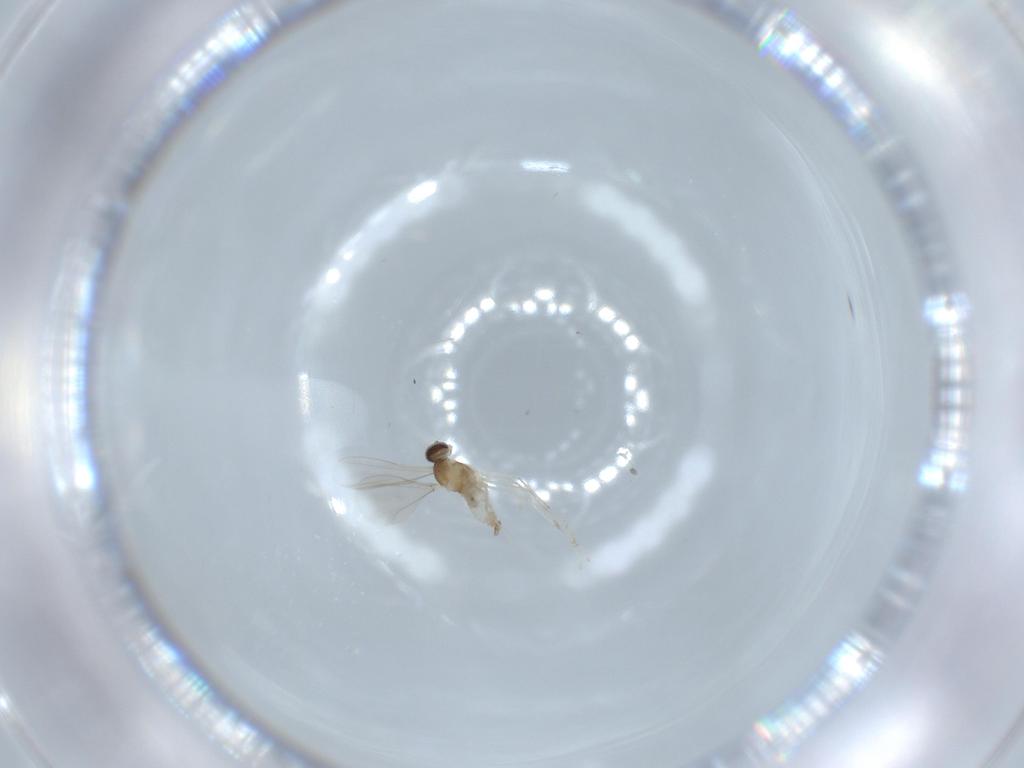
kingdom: Animalia
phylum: Arthropoda
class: Insecta
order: Diptera
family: Cecidomyiidae
